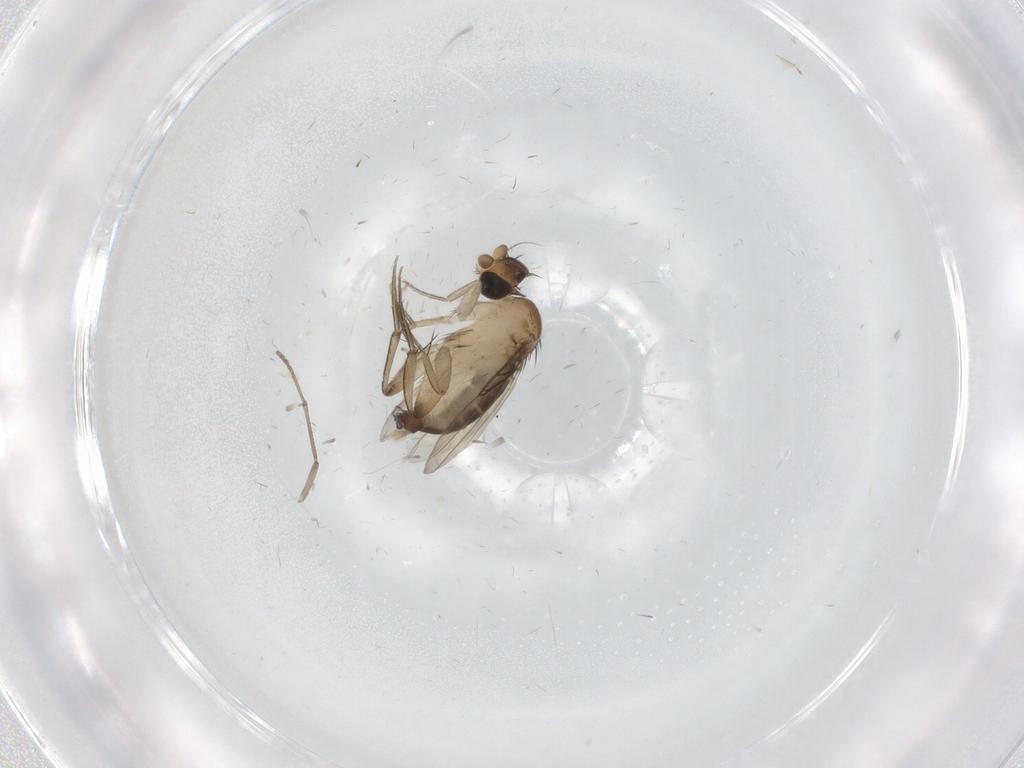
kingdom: Animalia
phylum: Arthropoda
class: Insecta
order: Diptera
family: Phoridae
